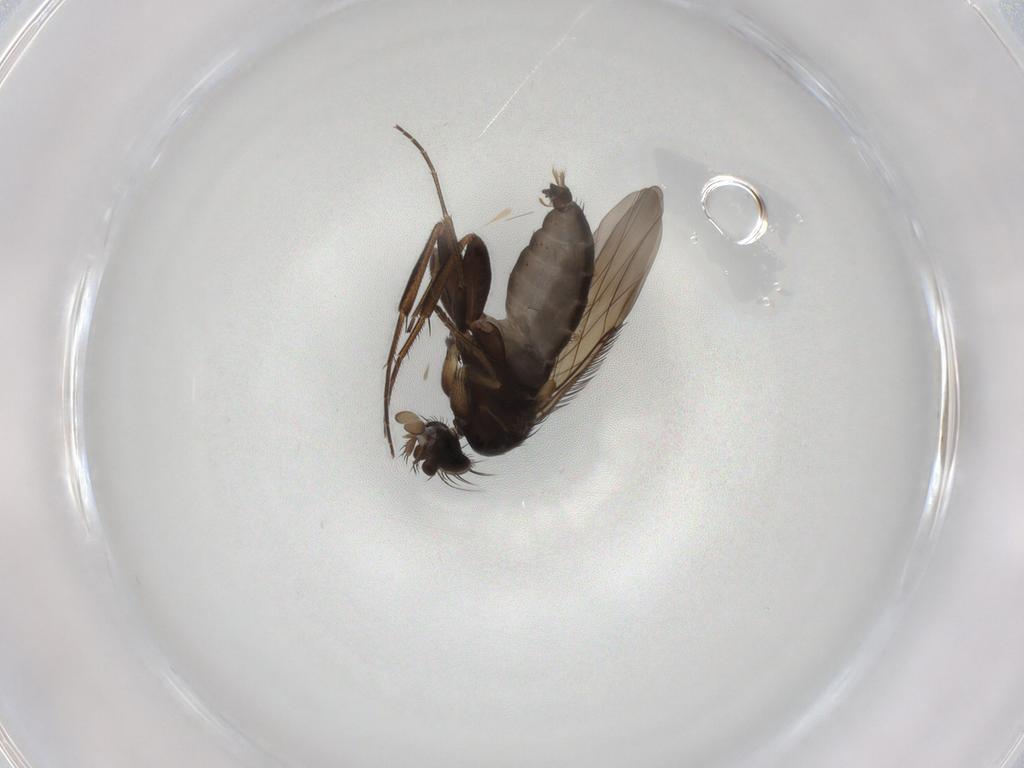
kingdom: Animalia
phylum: Arthropoda
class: Insecta
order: Diptera
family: Phoridae
